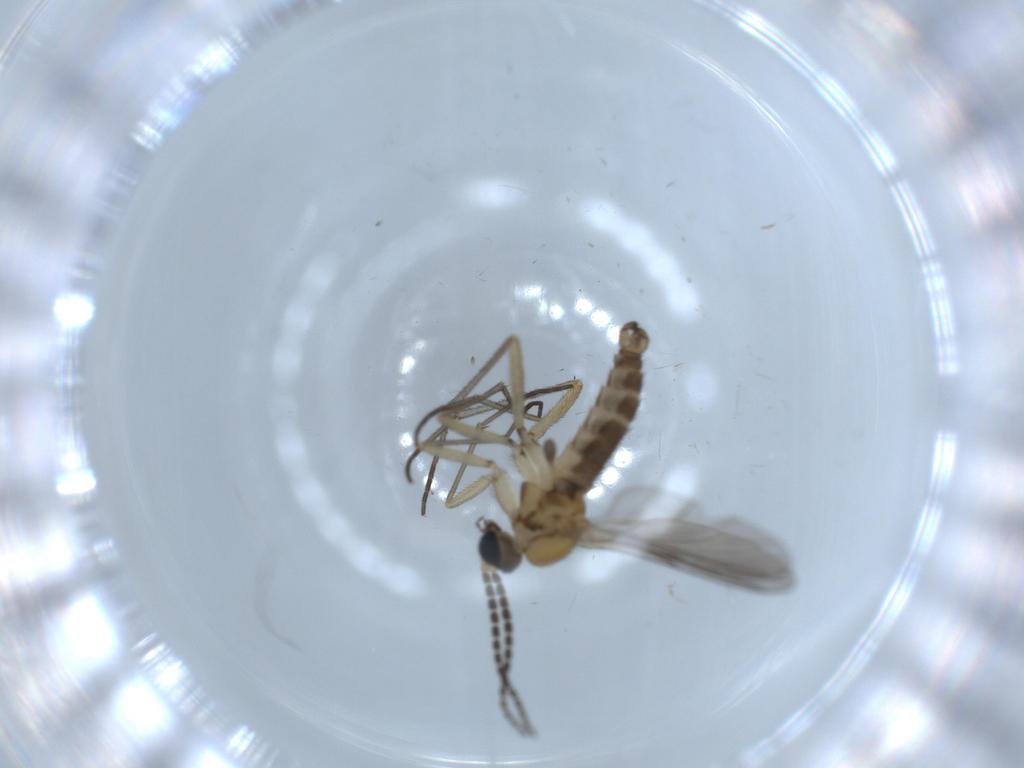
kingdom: Animalia
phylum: Arthropoda
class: Insecta
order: Diptera
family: Sciaridae
